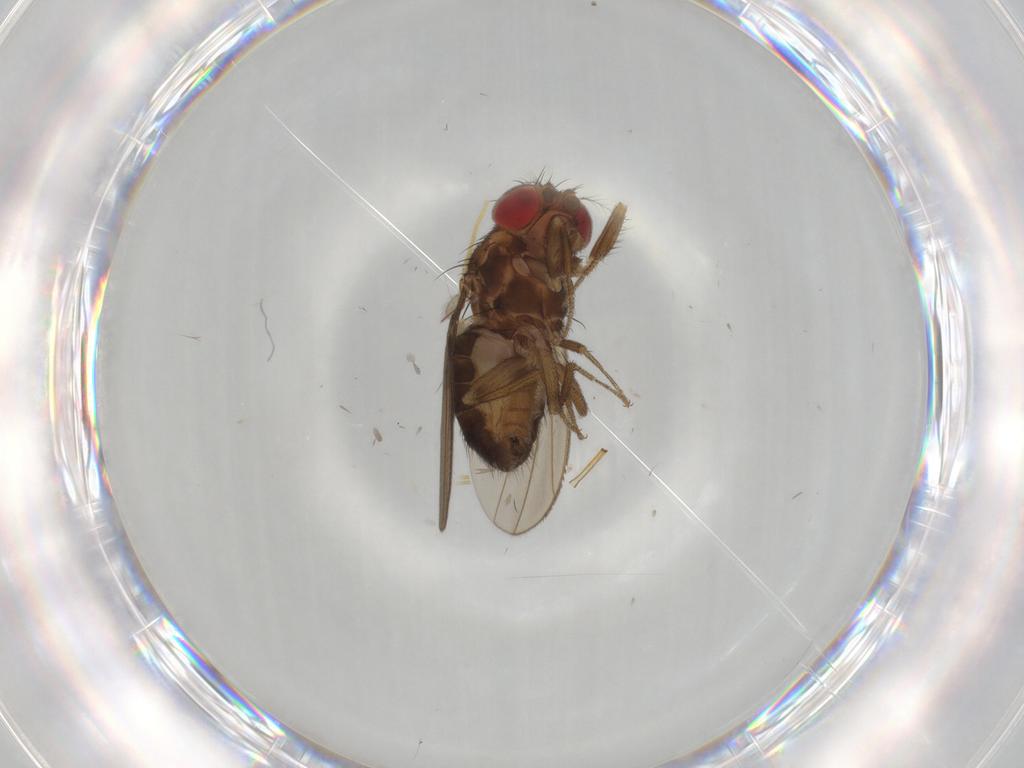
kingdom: Animalia
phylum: Arthropoda
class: Insecta
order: Diptera
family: Drosophilidae
